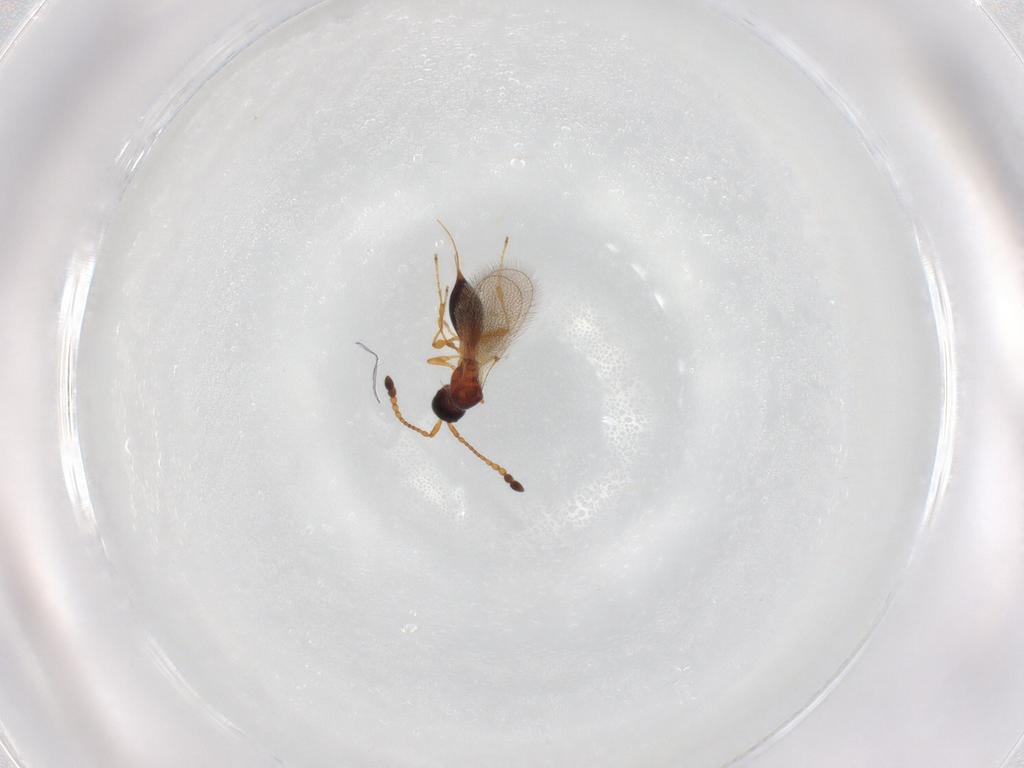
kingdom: Animalia
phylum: Arthropoda
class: Insecta
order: Hymenoptera
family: Diapriidae
